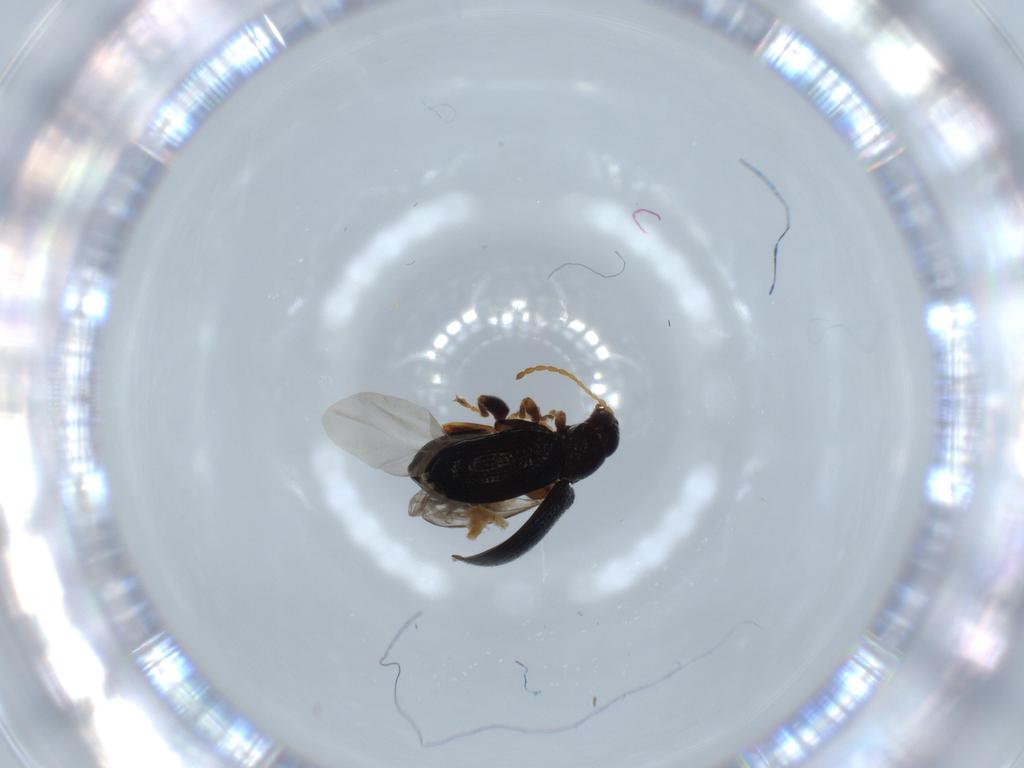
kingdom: Animalia
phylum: Arthropoda
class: Insecta
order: Coleoptera
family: Chrysomelidae
